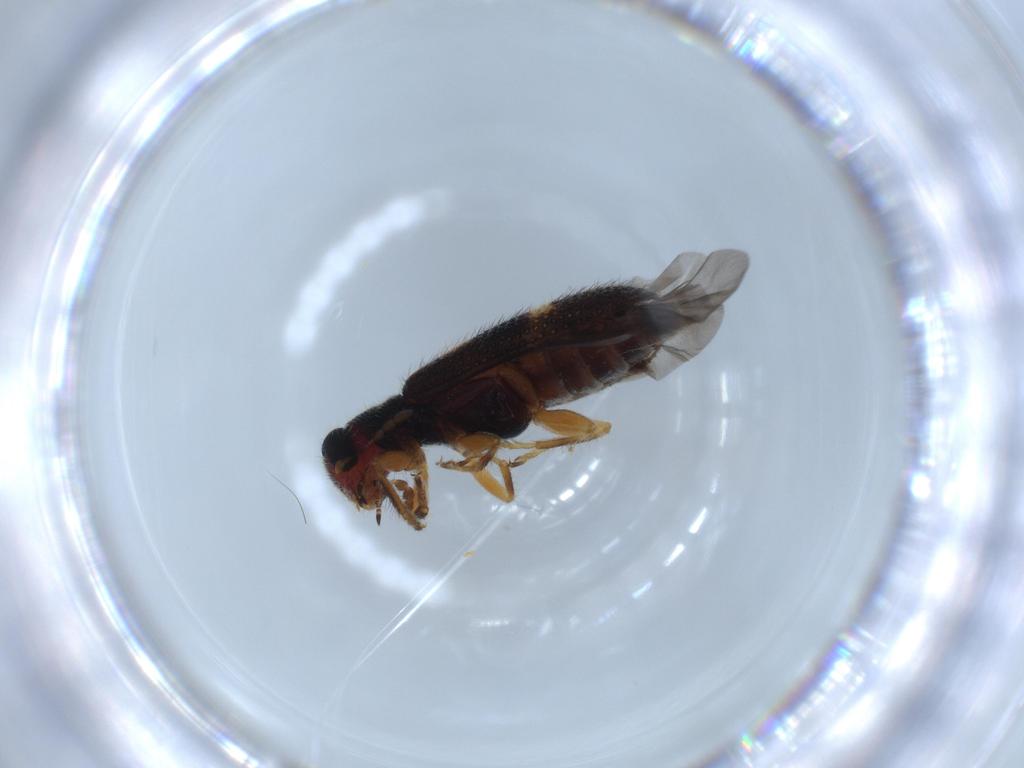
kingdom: Animalia
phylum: Arthropoda
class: Insecta
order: Coleoptera
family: Cleridae
